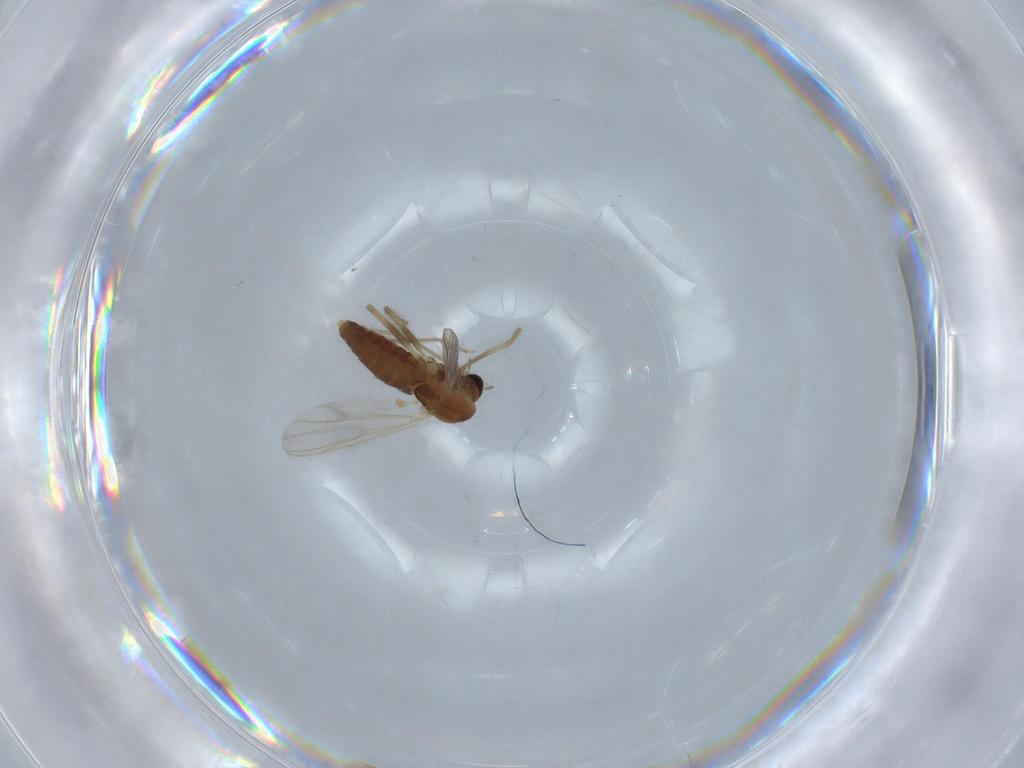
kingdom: Animalia
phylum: Arthropoda
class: Insecta
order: Diptera
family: Chironomidae
